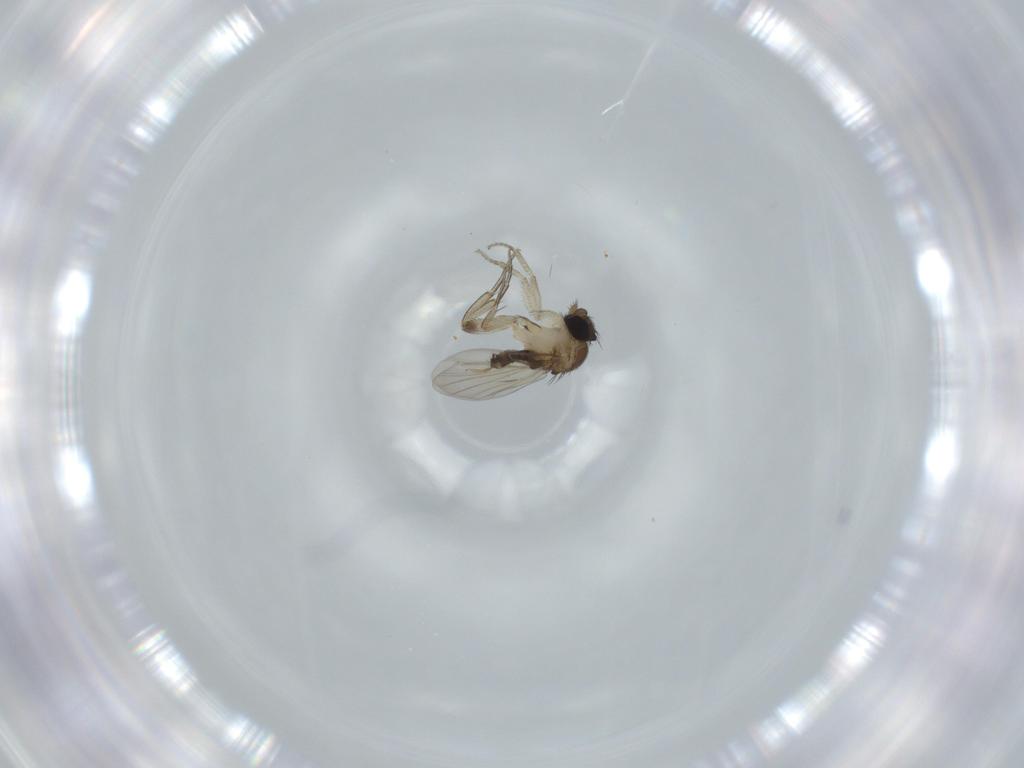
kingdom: Animalia
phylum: Arthropoda
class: Insecta
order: Diptera
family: Phoridae
